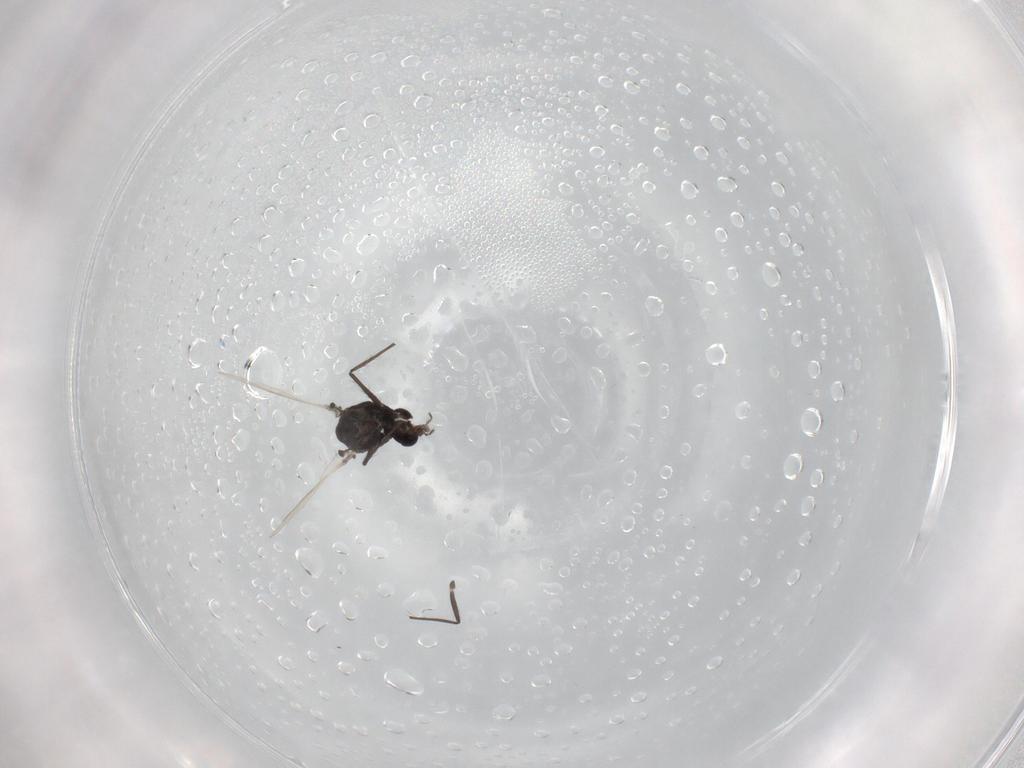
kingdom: Animalia
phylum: Arthropoda
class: Insecta
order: Diptera
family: Chironomidae
